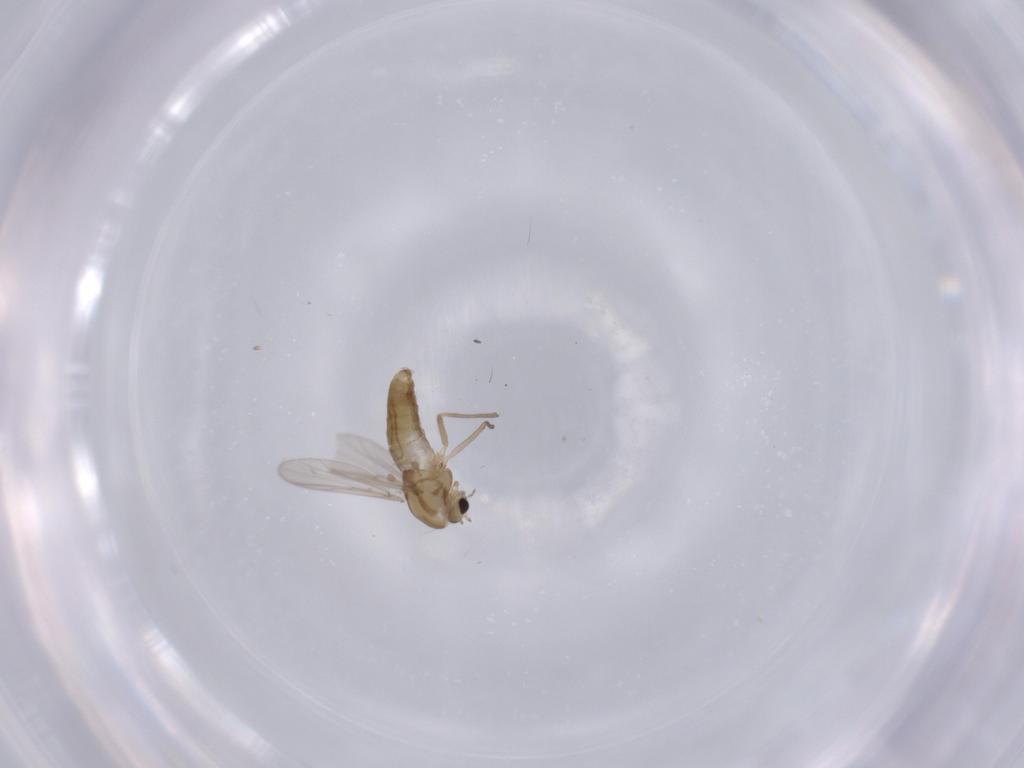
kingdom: Animalia
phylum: Arthropoda
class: Insecta
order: Diptera
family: Chironomidae
